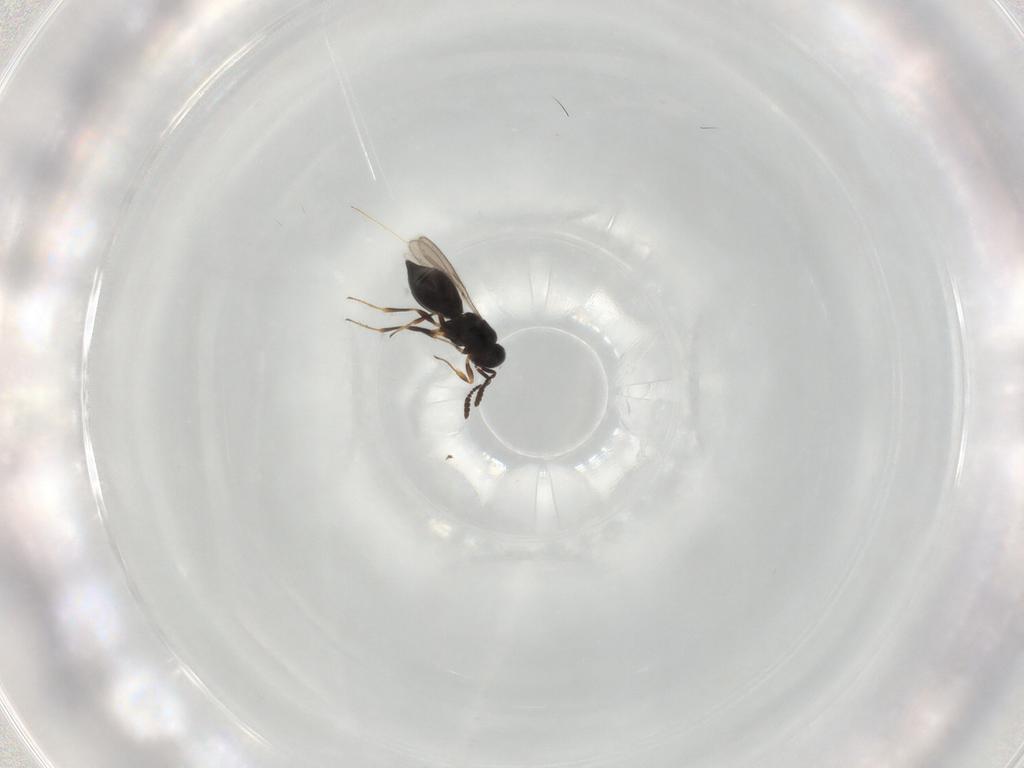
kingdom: Animalia
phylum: Arthropoda
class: Insecta
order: Hymenoptera
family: Scelionidae
